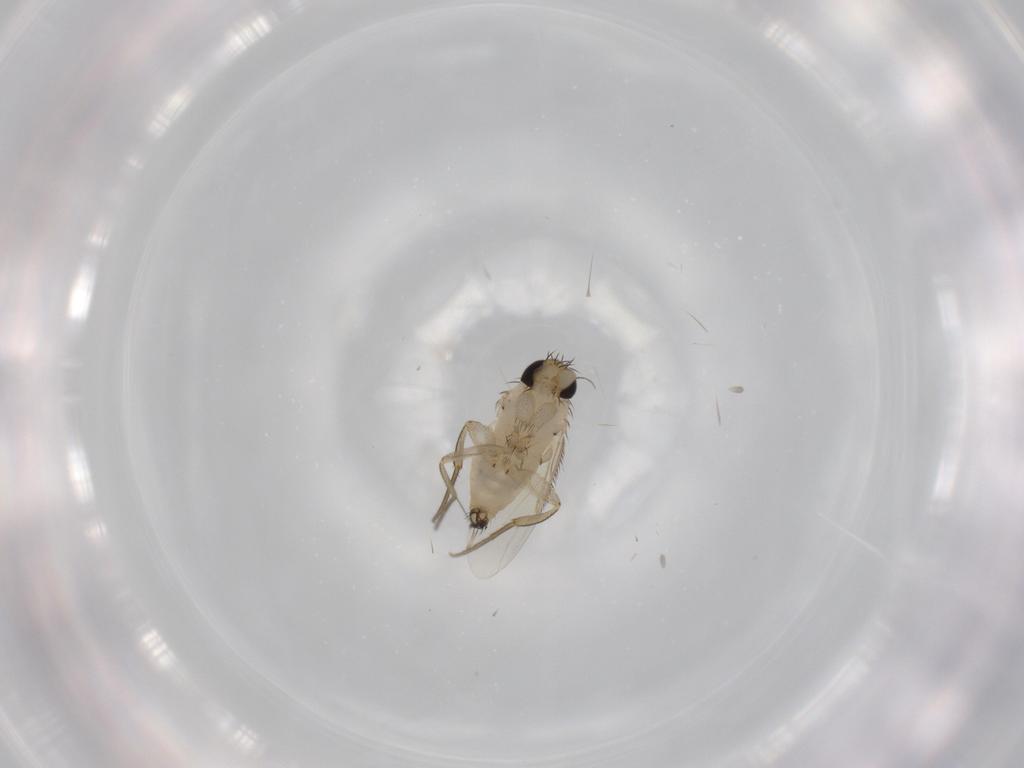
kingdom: Animalia
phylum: Arthropoda
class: Insecta
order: Diptera
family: Phoridae
